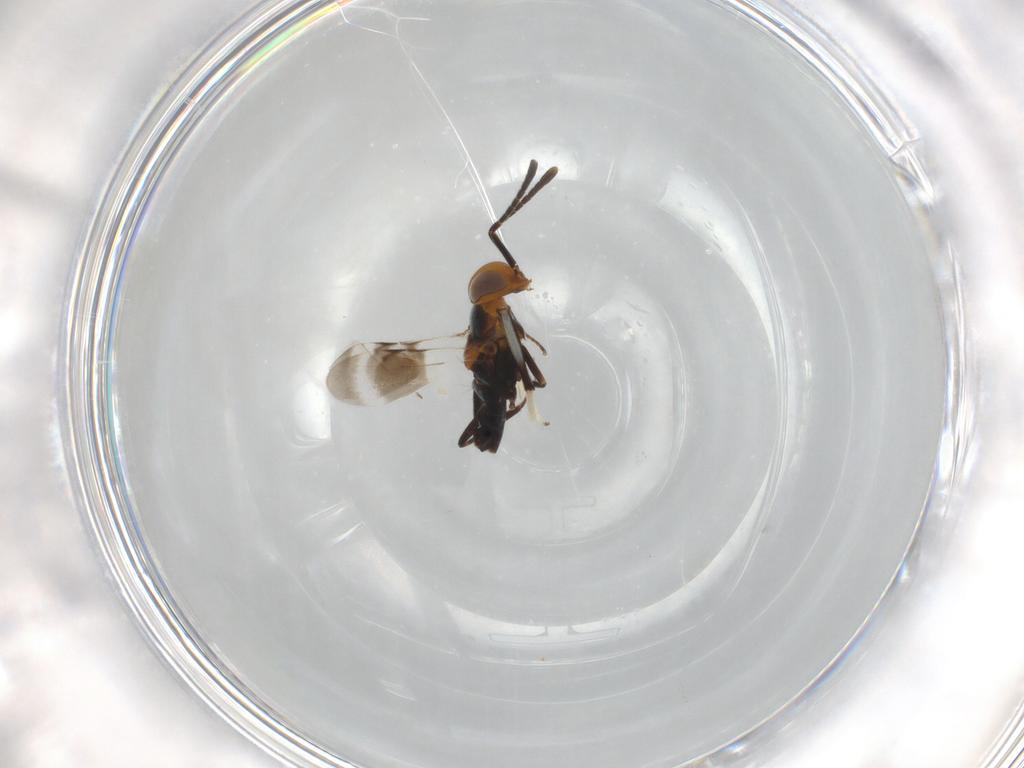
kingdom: Animalia
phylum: Arthropoda
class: Insecta
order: Hymenoptera
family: Encyrtidae
